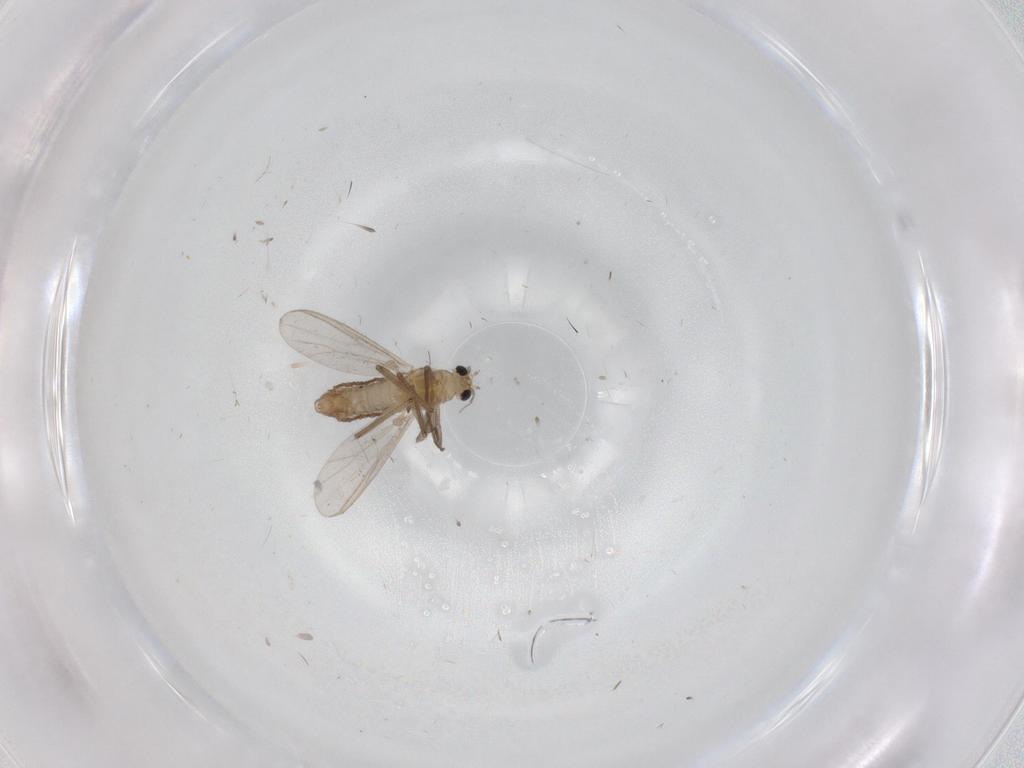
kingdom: Animalia
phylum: Arthropoda
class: Insecta
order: Diptera
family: Chironomidae
